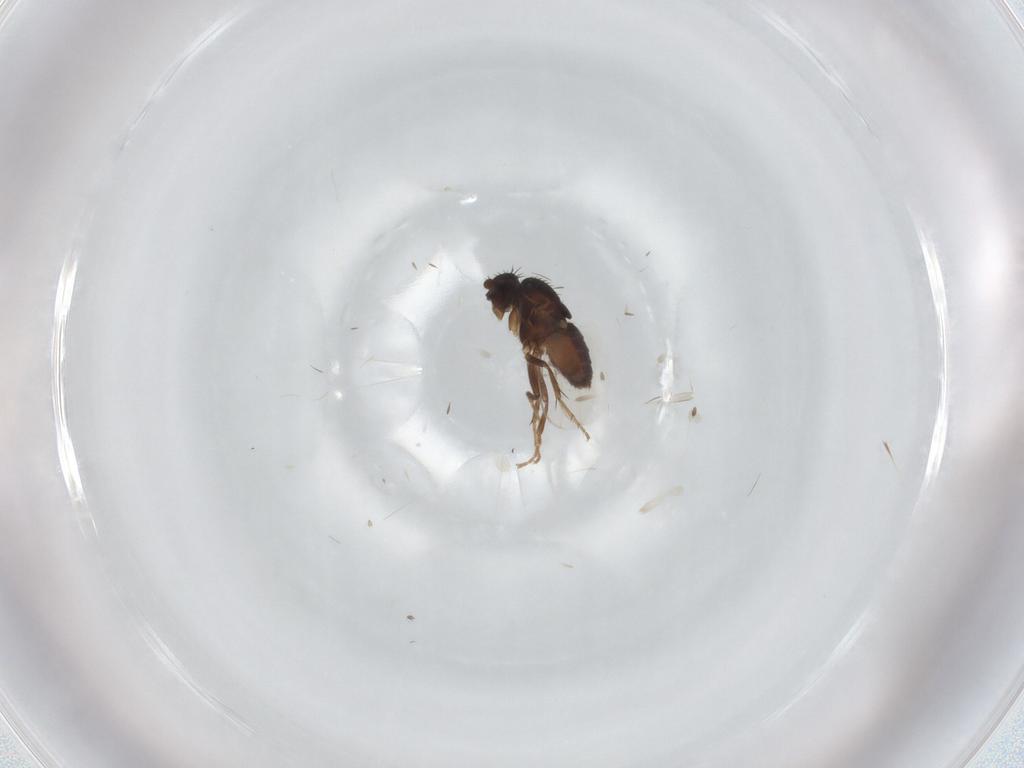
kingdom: Animalia
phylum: Arthropoda
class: Insecta
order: Diptera
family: Sphaeroceridae
